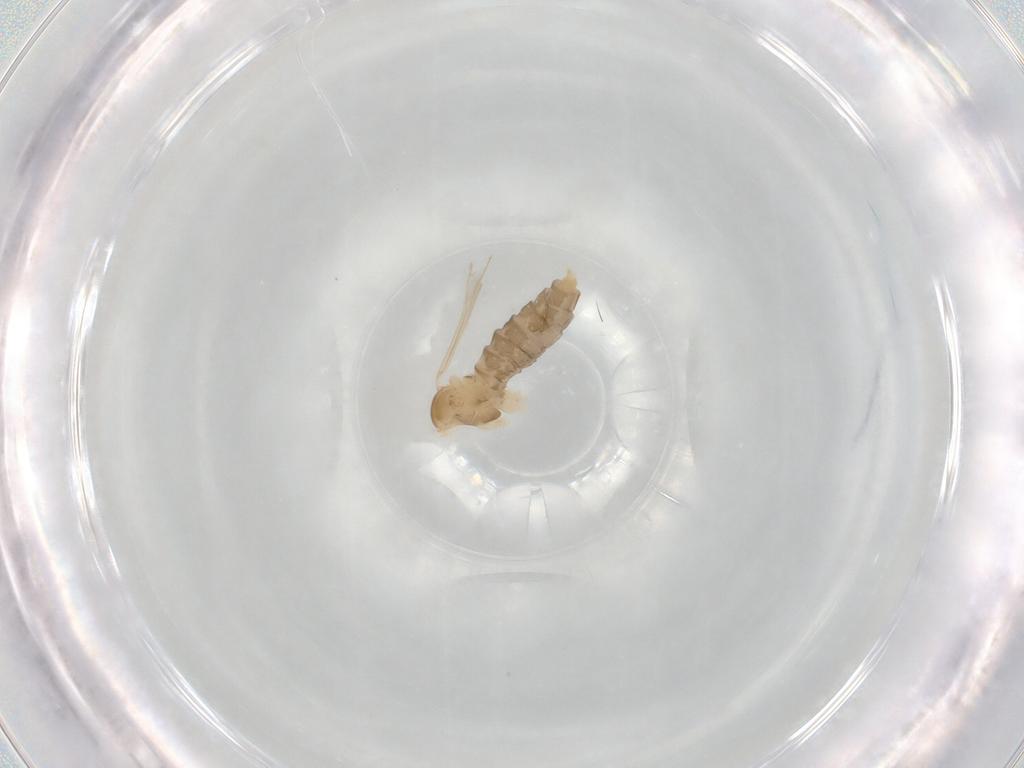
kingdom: Animalia
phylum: Arthropoda
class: Insecta
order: Diptera
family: Cecidomyiidae
